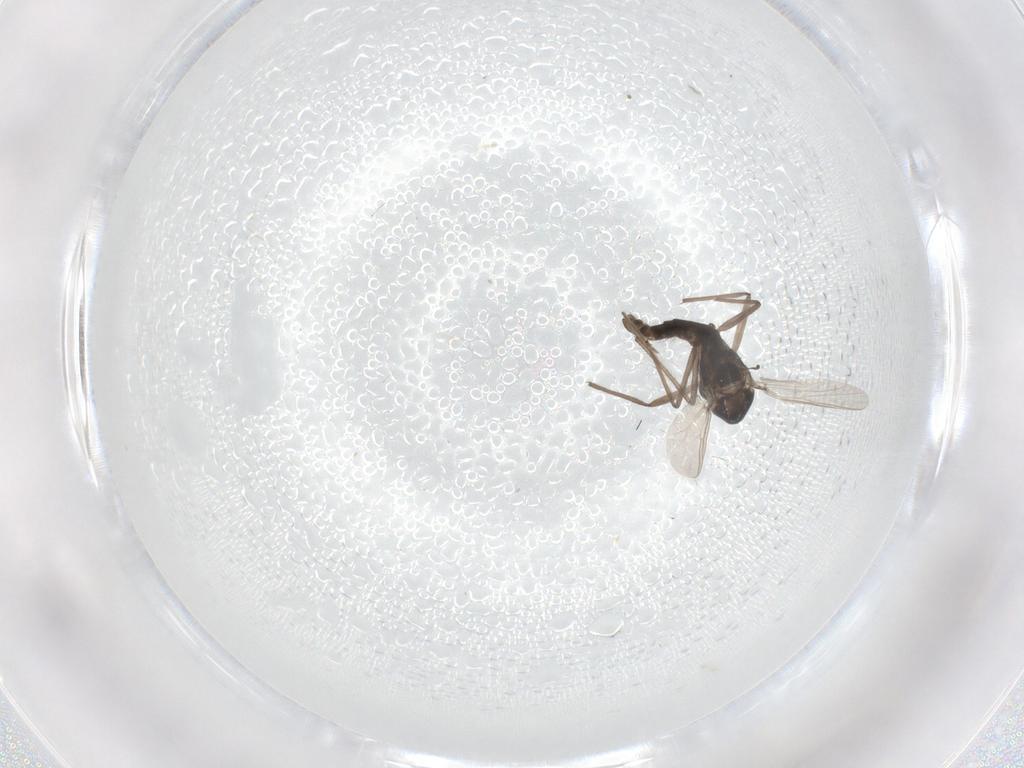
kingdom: Animalia
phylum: Arthropoda
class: Insecta
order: Diptera
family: Chironomidae
